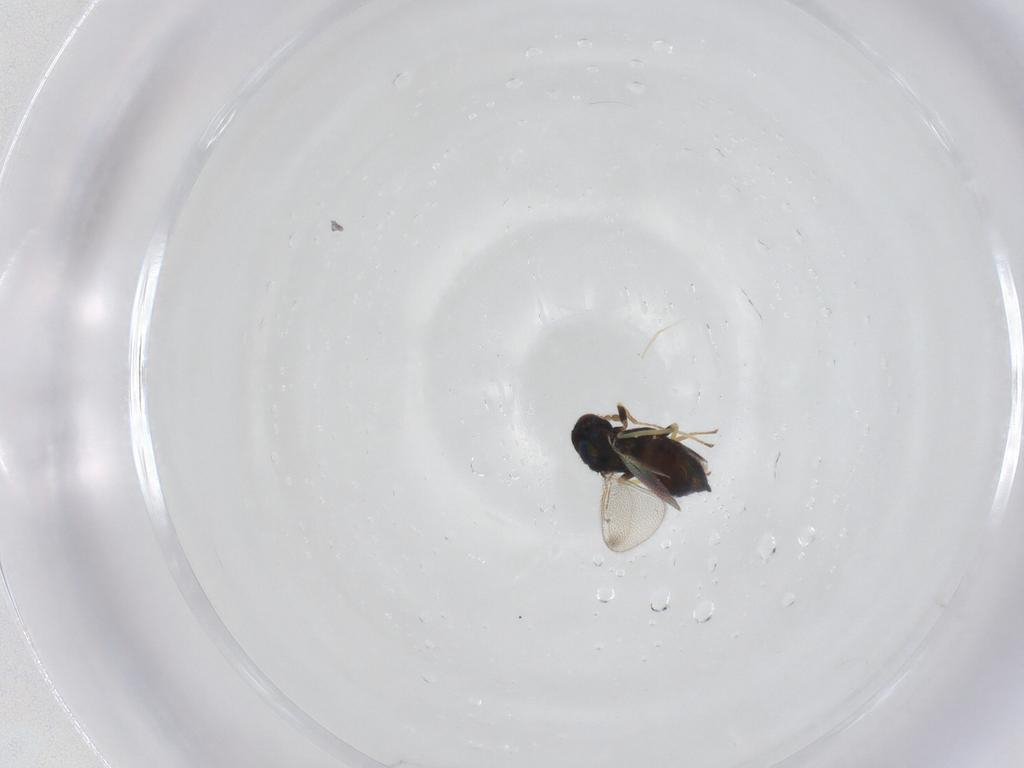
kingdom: Animalia
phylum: Arthropoda
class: Insecta
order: Hymenoptera
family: Eulophidae
